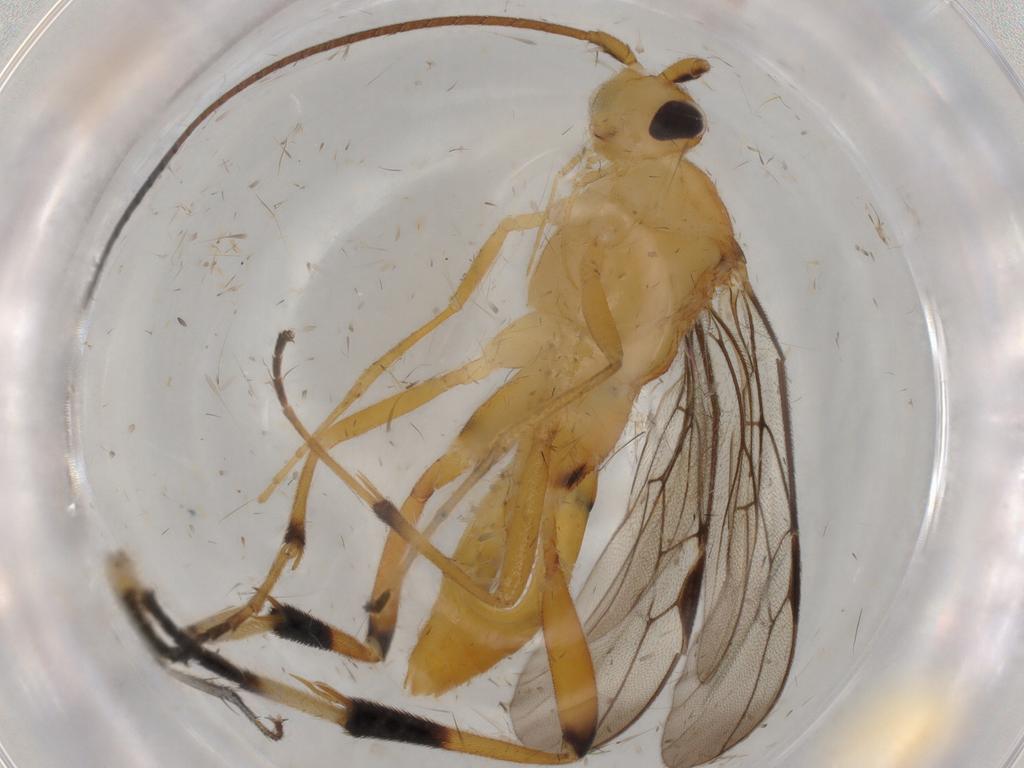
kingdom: Animalia
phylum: Arthropoda
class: Insecta
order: Hymenoptera
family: Braconidae
